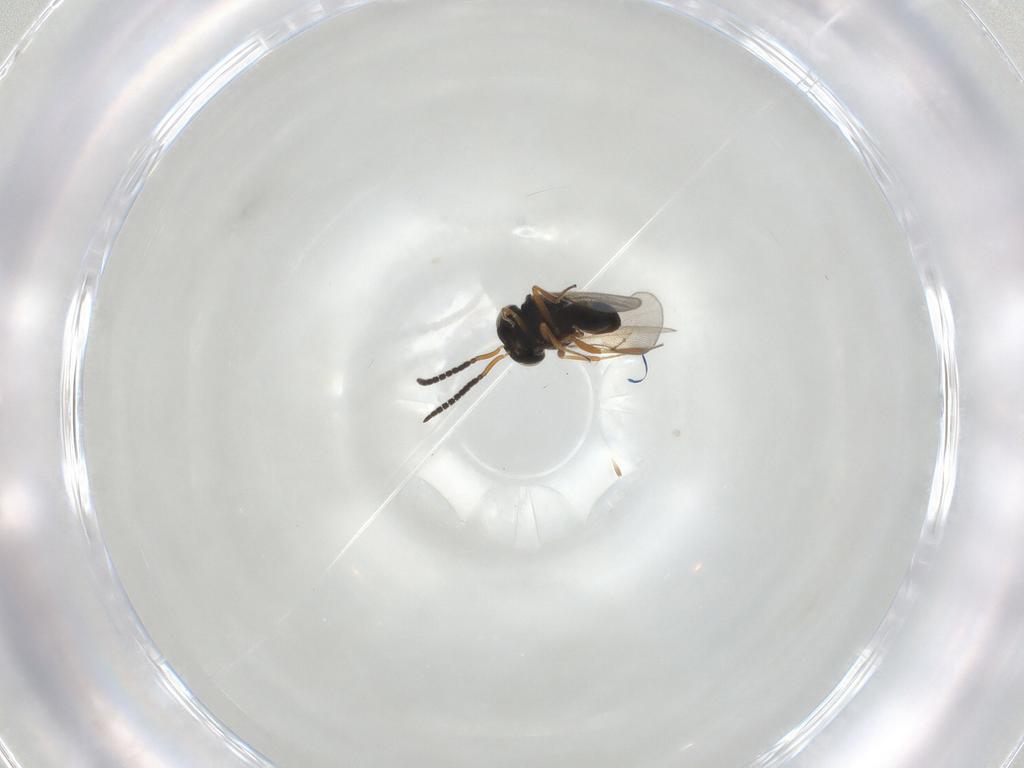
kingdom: Animalia
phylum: Arthropoda
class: Insecta
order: Hymenoptera
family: Scelionidae
